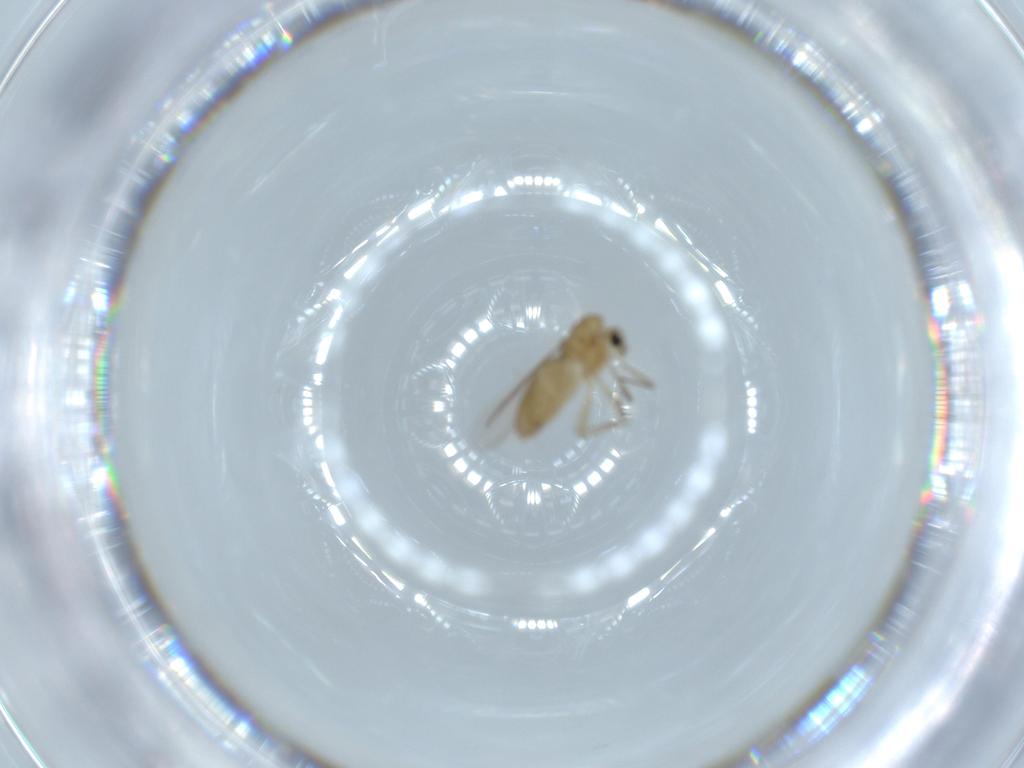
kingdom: Animalia
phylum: Arthropoda
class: Insecta
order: Diptera
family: Chironomidae
